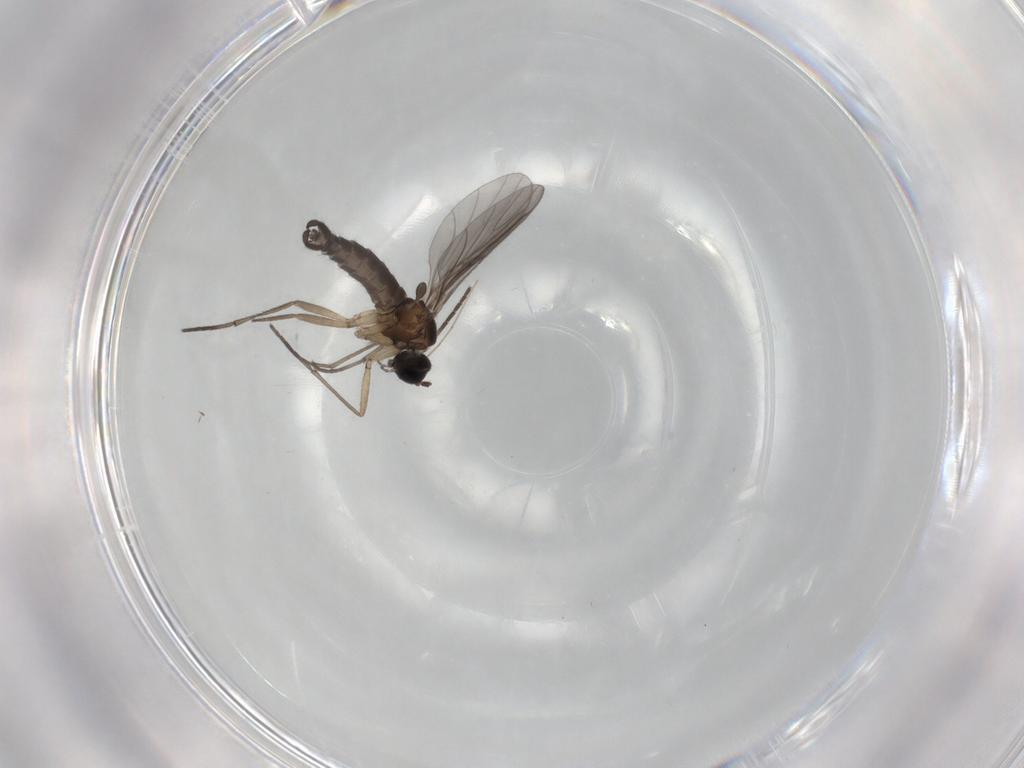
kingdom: Animalia
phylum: Arthropoda
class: Insecta
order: Diptera
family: Sciaridae
